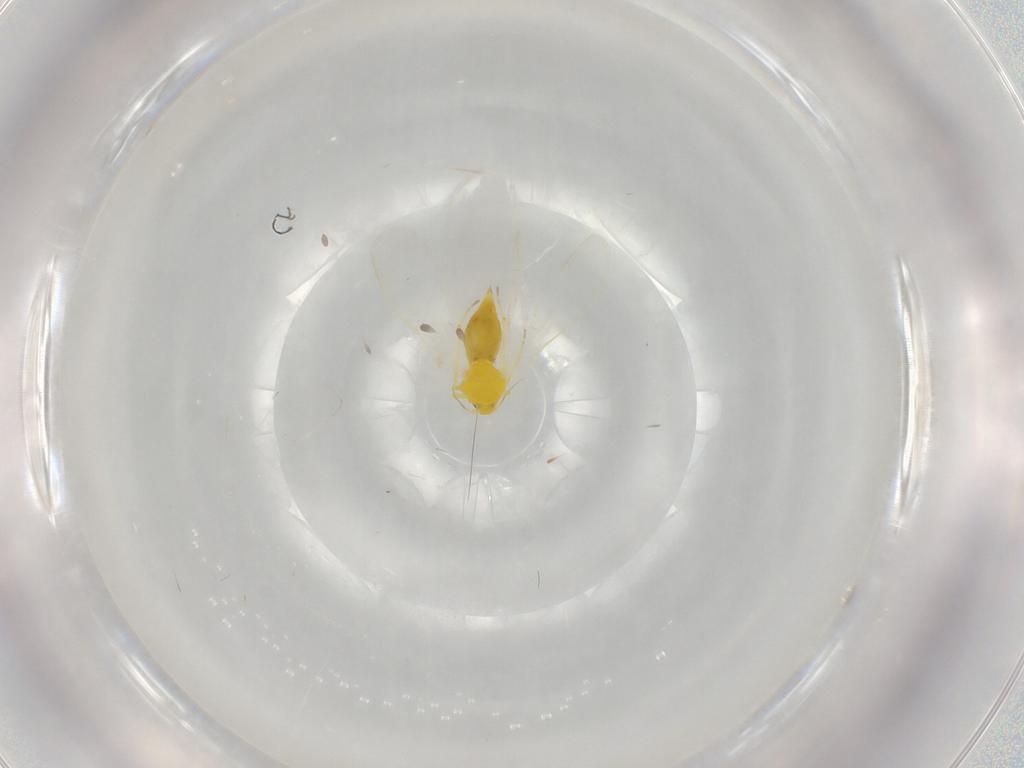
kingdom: Animalia
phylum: Arthropoda
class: Insecta
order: Hemiptera
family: Aleyrodidae
